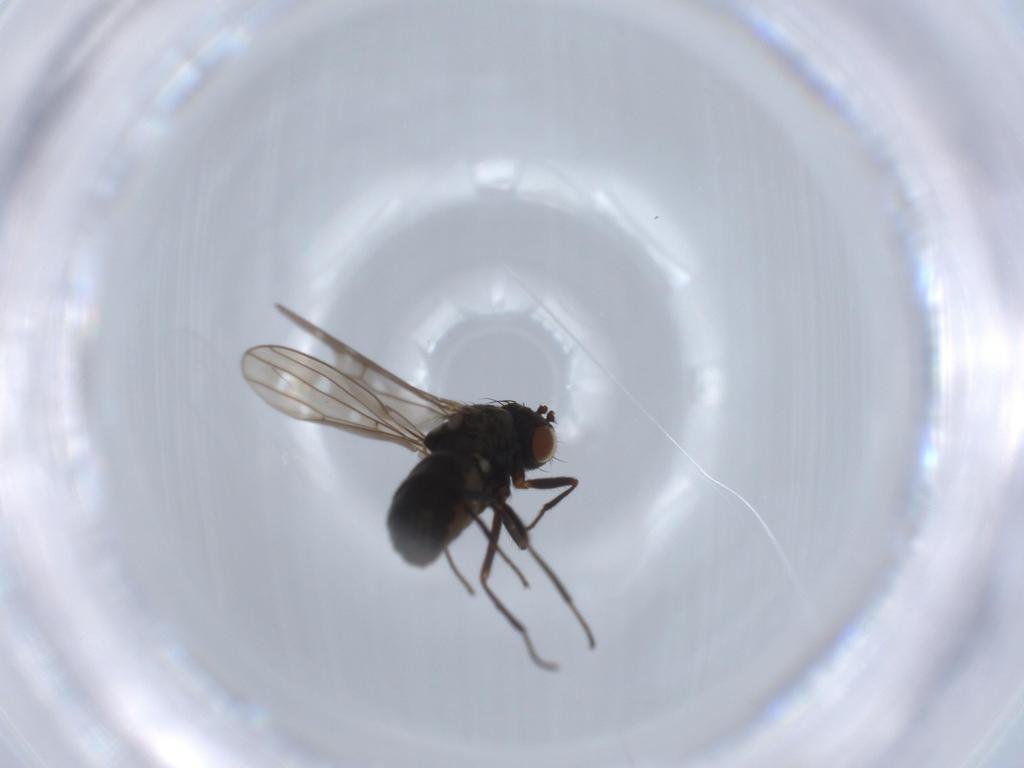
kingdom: Animalia
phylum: Arthropoda
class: Insecta
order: Diptera
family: Ephydridae
